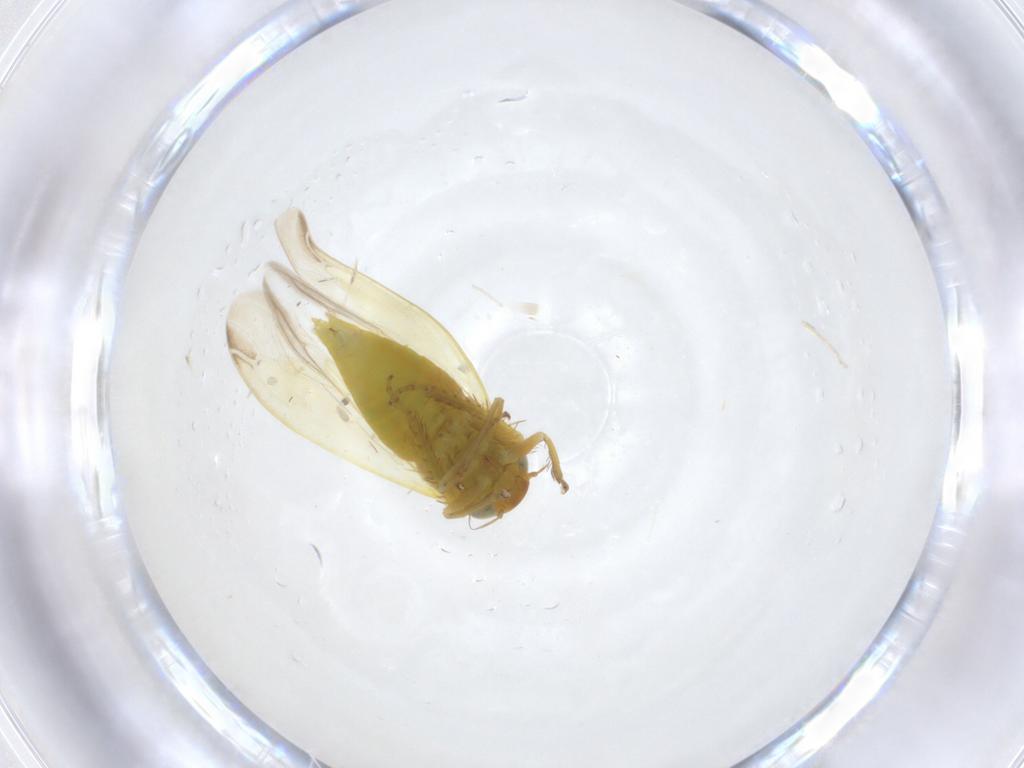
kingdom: Animalia
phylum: Arthropoda
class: Insecta
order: Hemiptera
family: Cicadellidae
